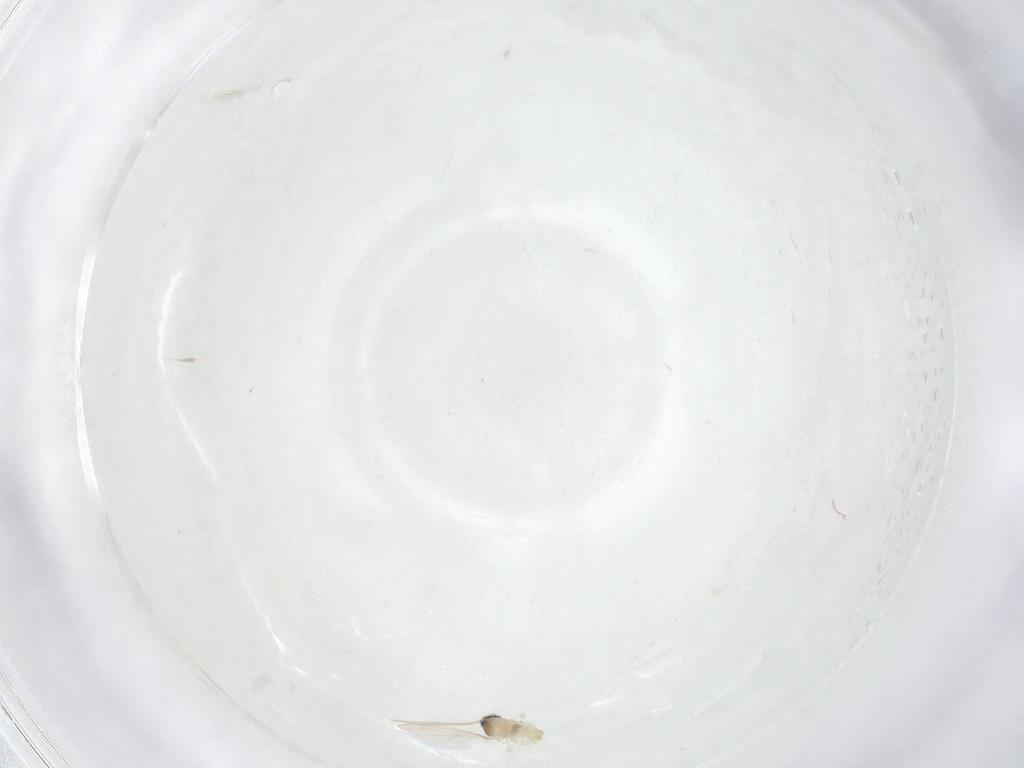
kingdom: Animalia
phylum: Arthropoda
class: Insecta
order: Diptera
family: Cecidomyiidae
